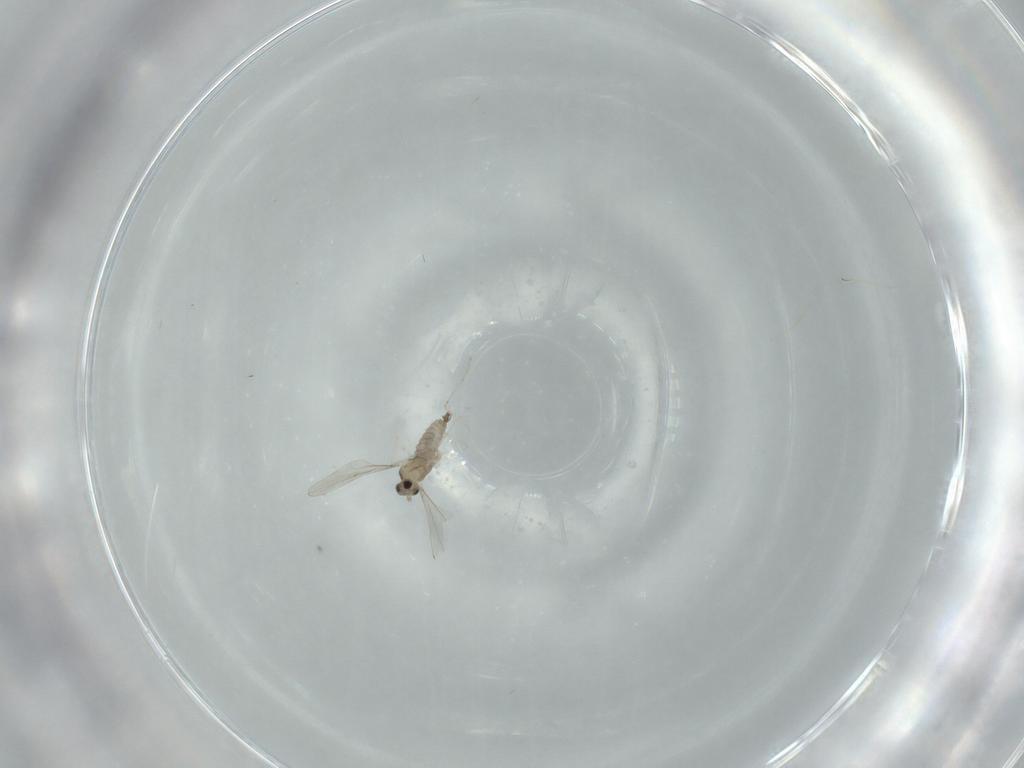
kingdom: Animalia
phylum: Arthropoda
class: Insecta
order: Diptera
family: Cecidomyiidae
